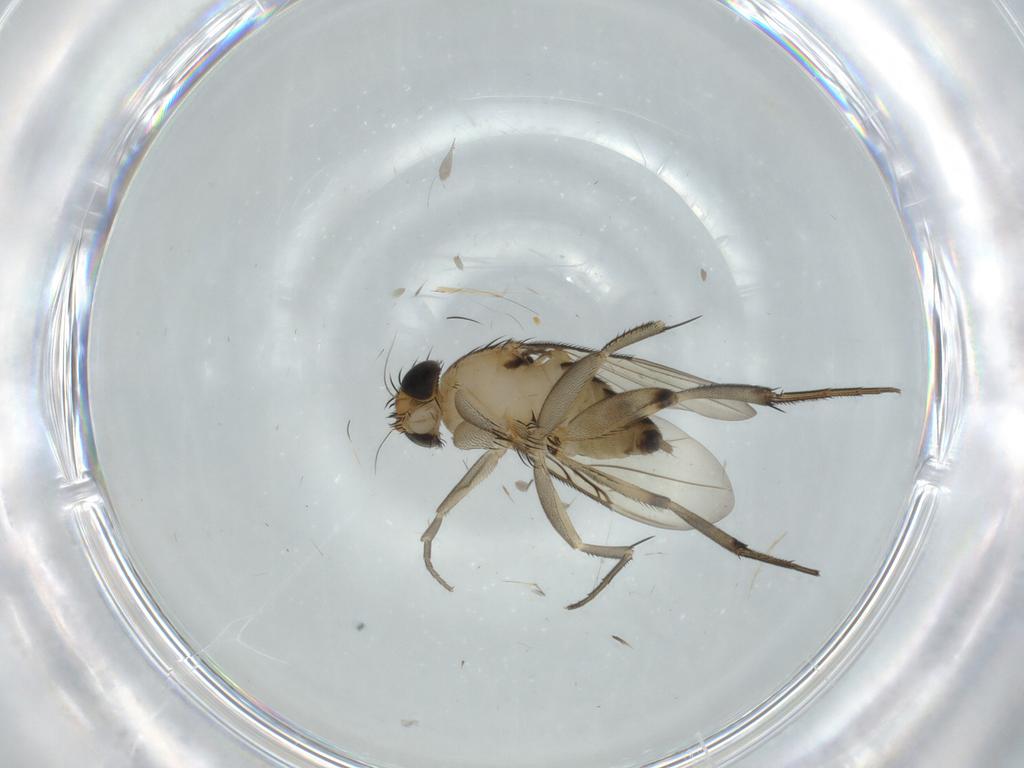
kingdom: Animalia
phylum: Arthropoda
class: Insecta
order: Diptera
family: Phoridae
